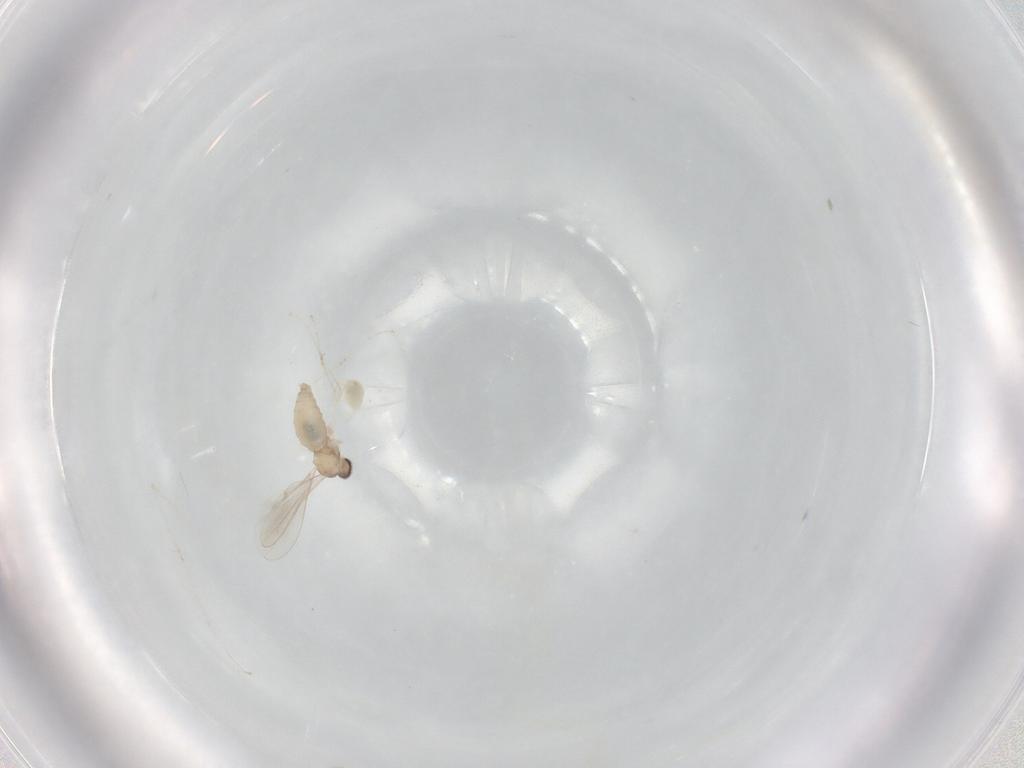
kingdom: Animalia
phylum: Arthropoda
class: Insecta
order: Diptera
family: Cecidomyiidae
